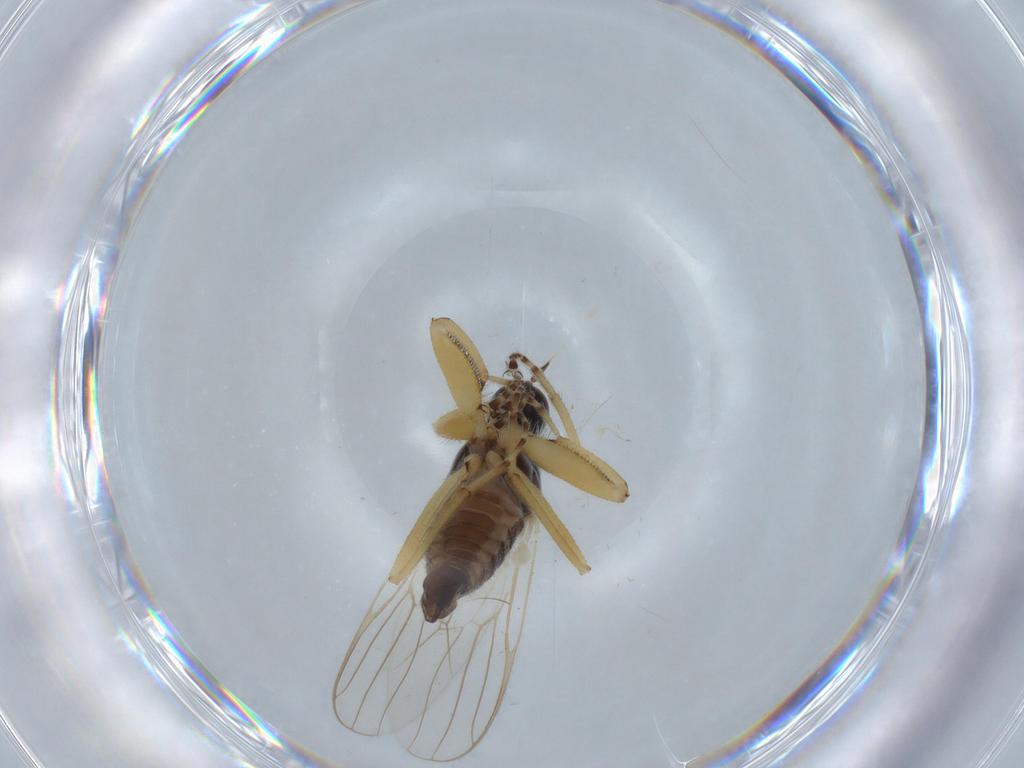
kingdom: Animalia
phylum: Arthropoda
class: Insecta
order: Diptera
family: Hybotidae
